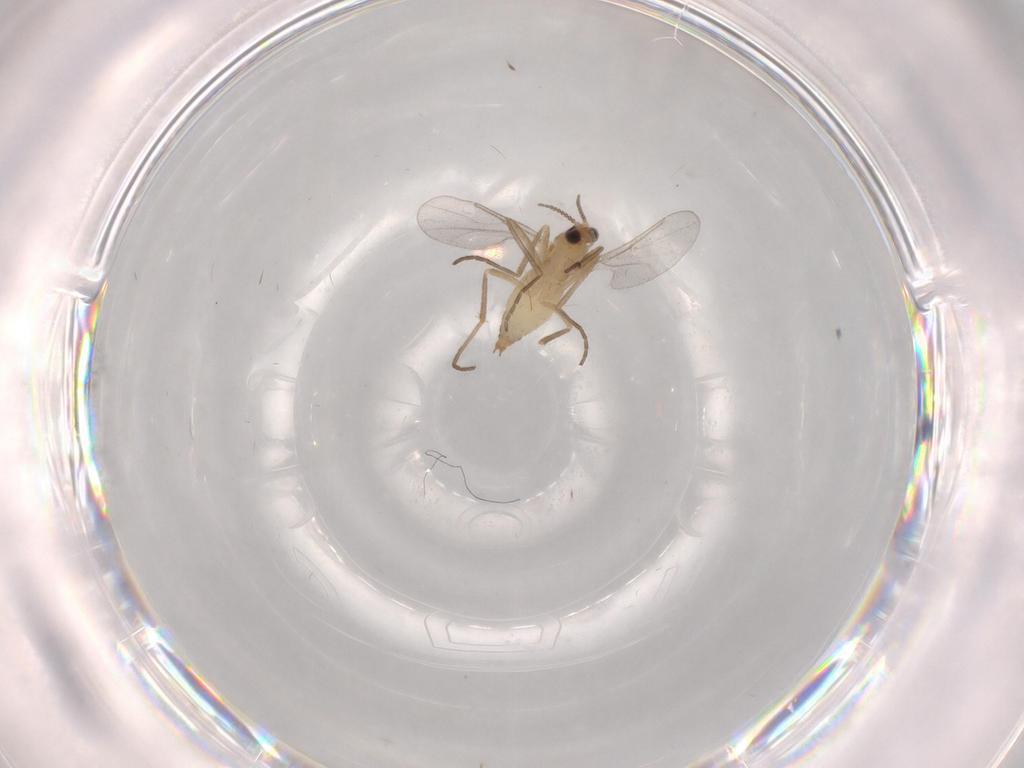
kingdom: Animalia
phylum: Arthropoda
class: Insecta
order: Diptera
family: Cecidomyiidae
